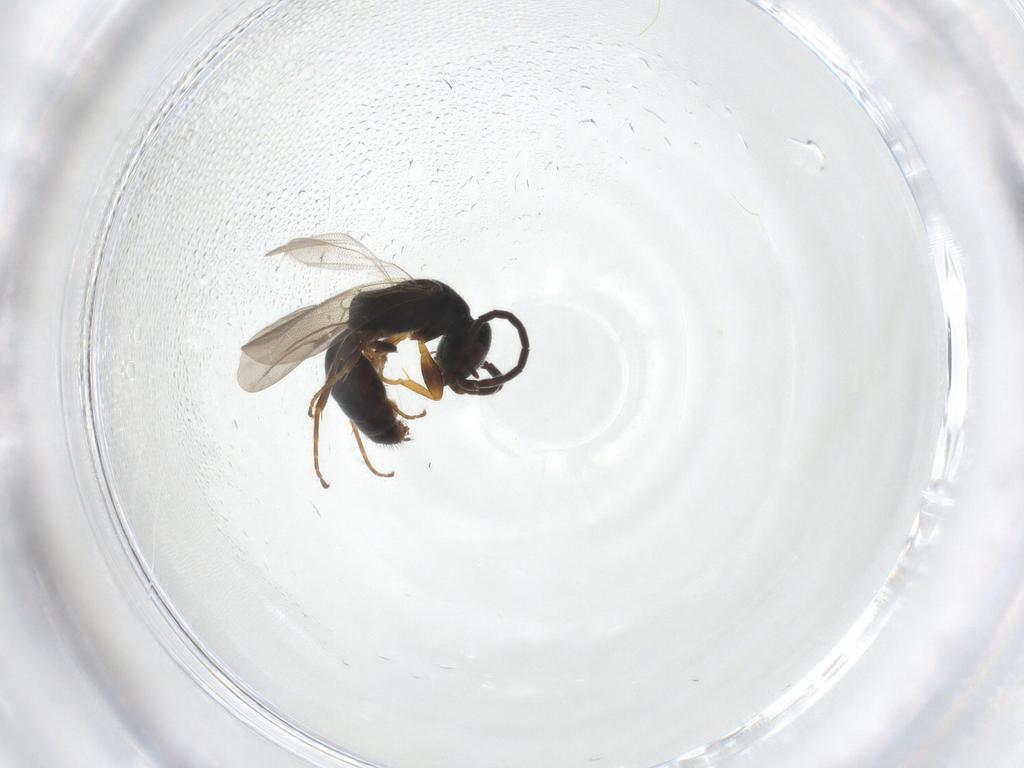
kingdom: Animalia
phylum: Arthropoda
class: Insecta
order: Hymenoptera
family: Bethylidae
